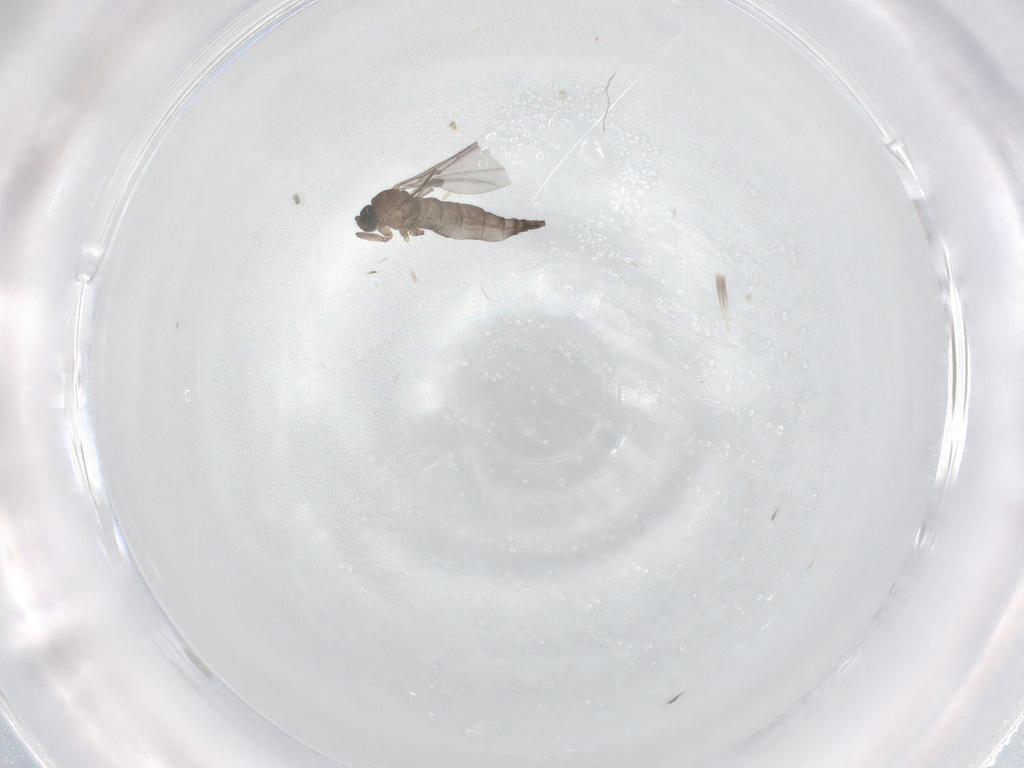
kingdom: Animalia
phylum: Arthropoda
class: Insecta
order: Diptera
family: Sciaridae
